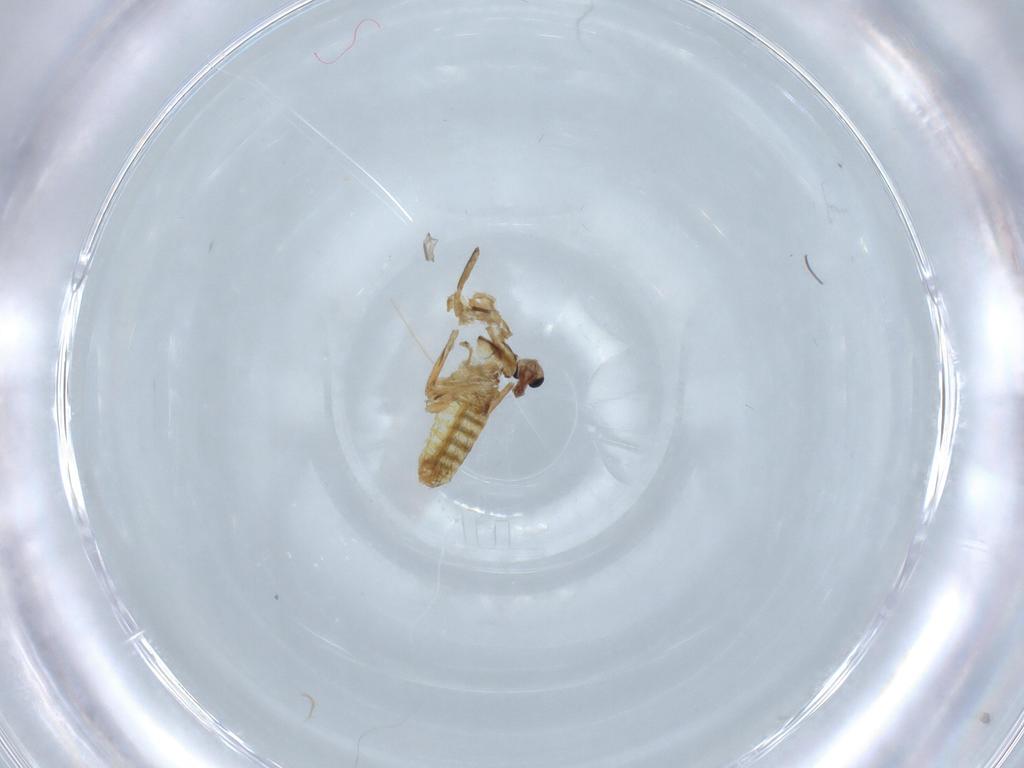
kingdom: Animalia
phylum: Arthropoda
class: Insecta
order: Diptera
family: Chironomidae
